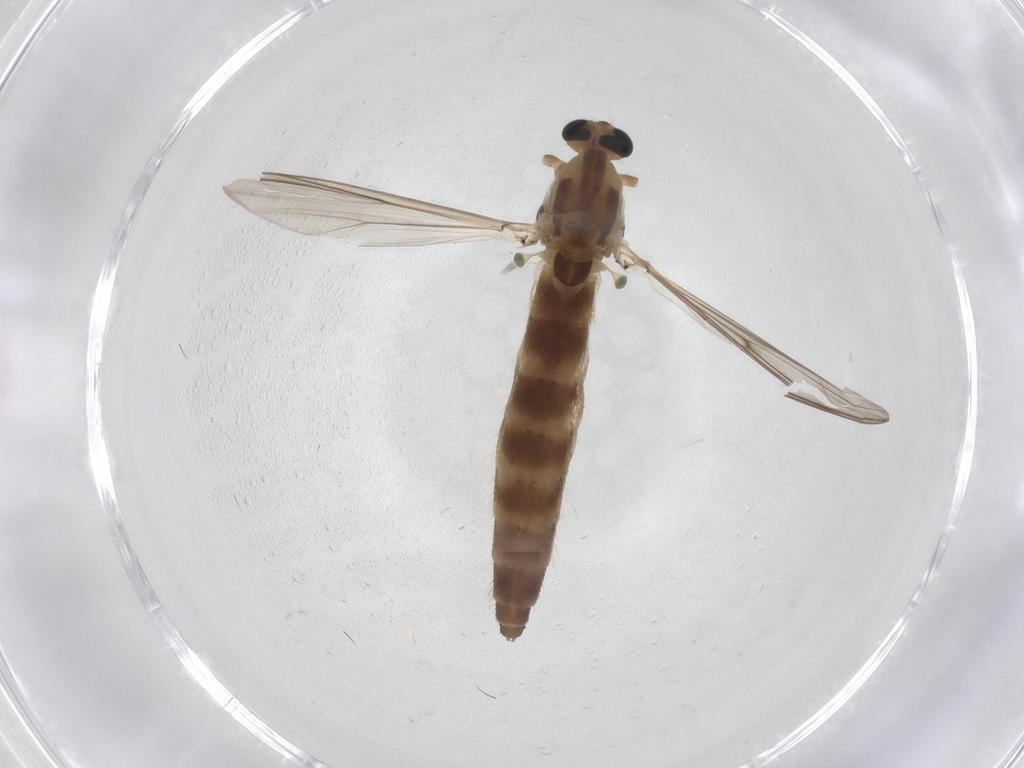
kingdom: Animalia
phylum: Arthropoda
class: Insecta
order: Diptera
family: Chironomidae
